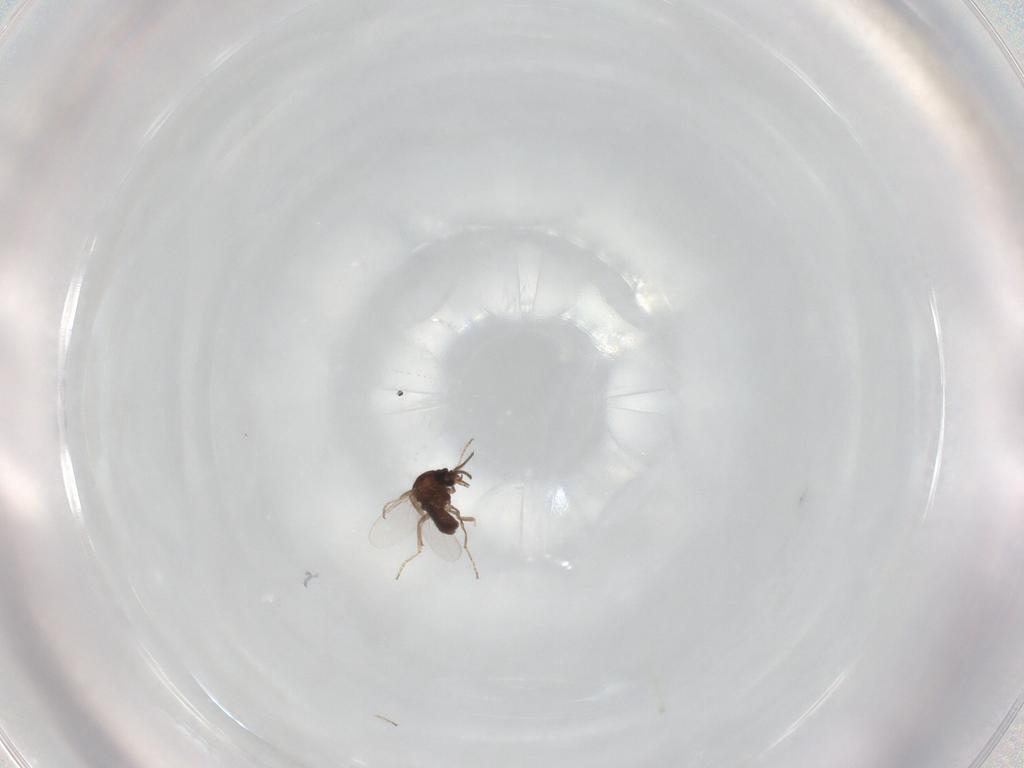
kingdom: Animalia
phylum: Arthropoda
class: Insecta
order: Diptera
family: Ceratopogonidae
